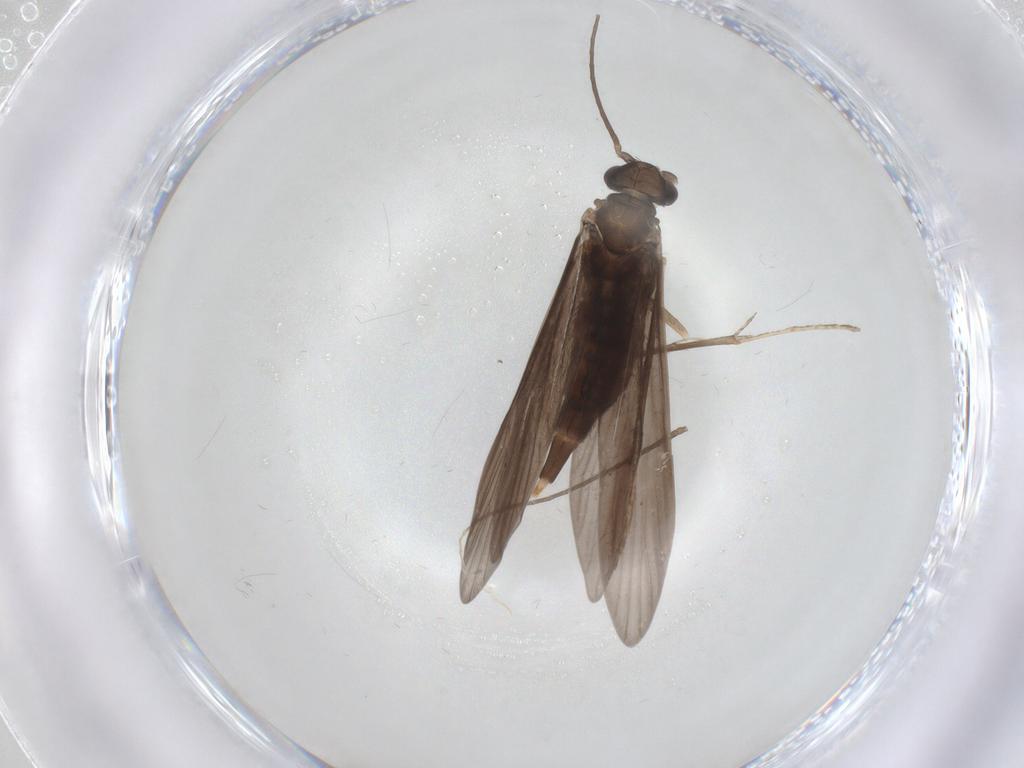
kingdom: Animalia
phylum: Arthropoda
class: Insecta
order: Trichoptera
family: Xiphocentronidae
